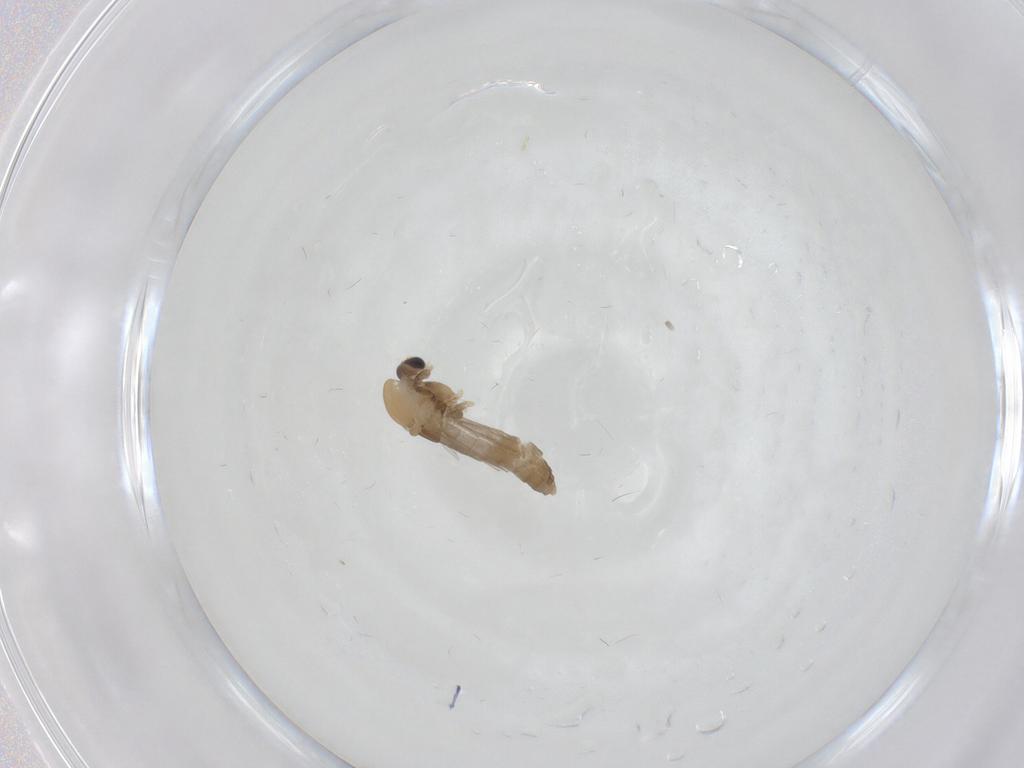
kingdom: Animalia
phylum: Arthropoda
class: Insecta
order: Diptera
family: Chironomidae
